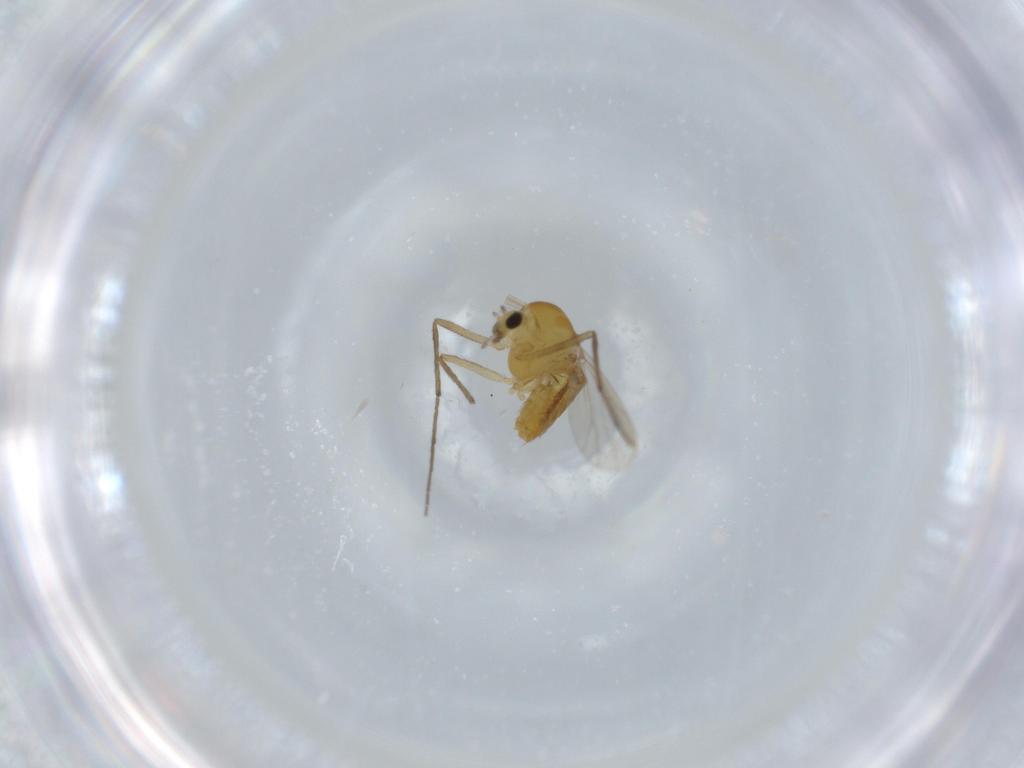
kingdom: Animalia
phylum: Arthropoda
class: Insecta
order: Diptera
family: Chironomidae
